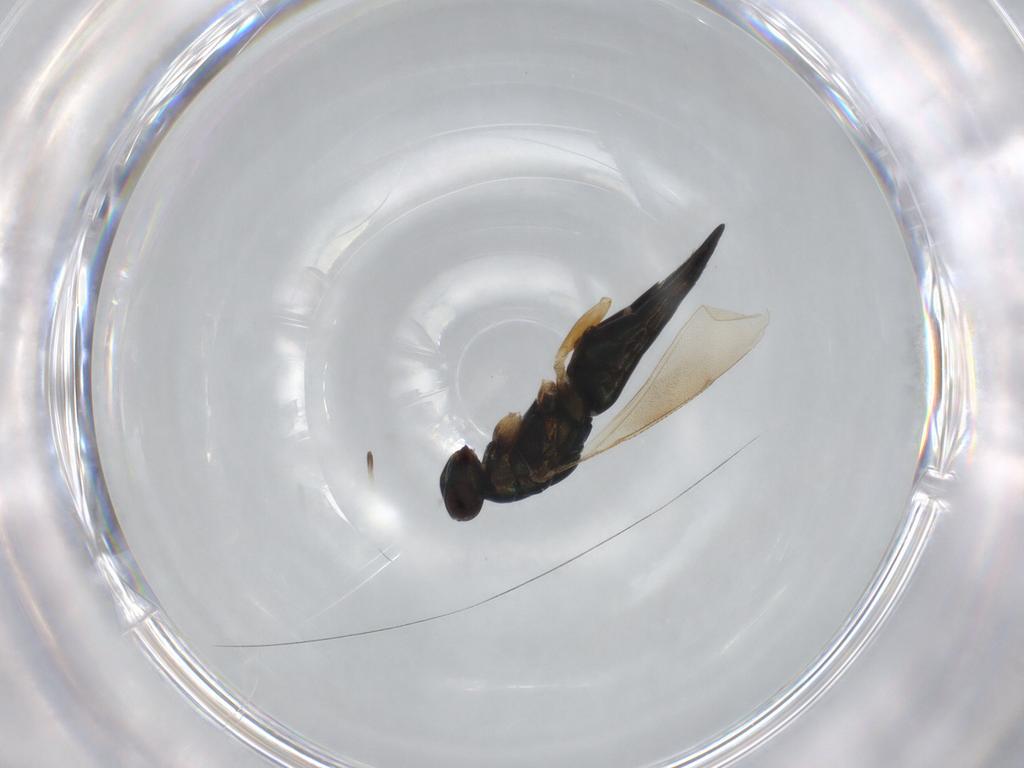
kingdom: Animalia
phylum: Arthropoda
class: Insecta
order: Hymenoptera
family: Eulophidae
